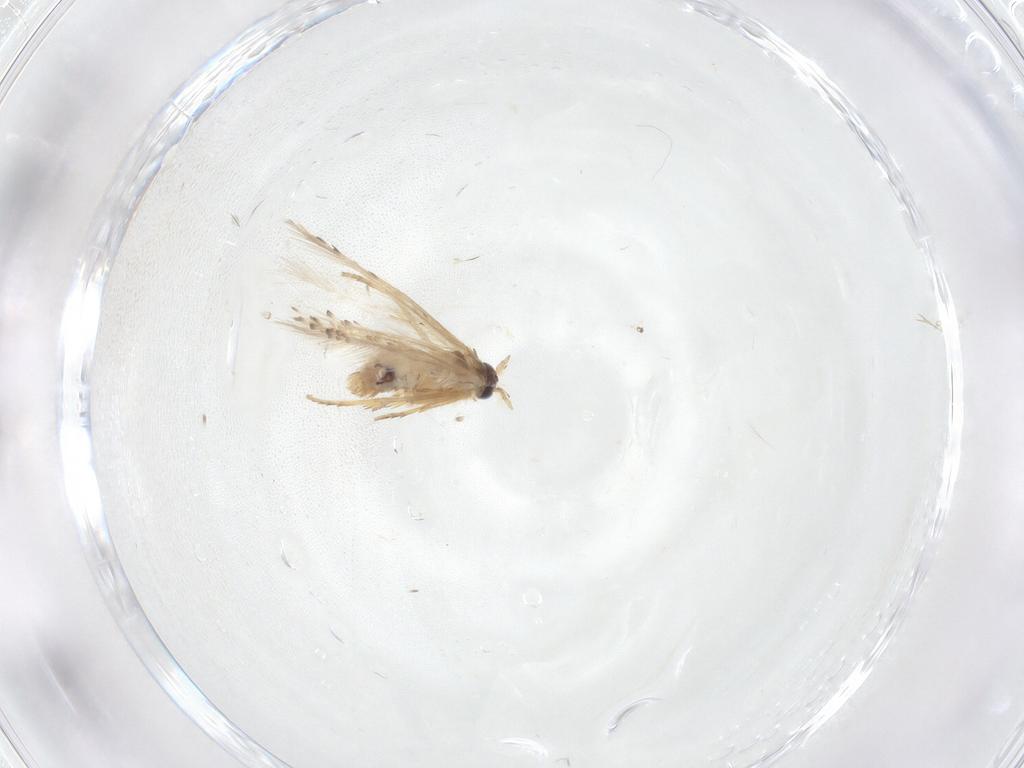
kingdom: Animalia
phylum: Arthropoda
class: Insecta
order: Lepidoptera
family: Nepticulidae
